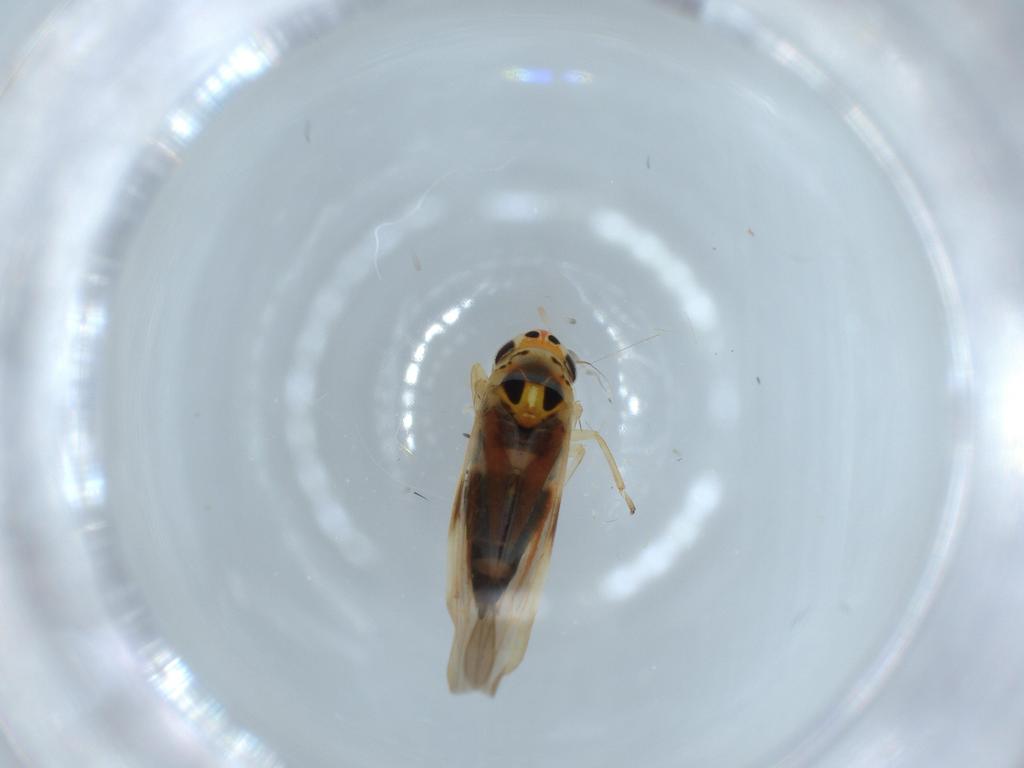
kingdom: Animalia
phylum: Arthropoda
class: Insecta
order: Hemiptera
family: Cicadellidae
